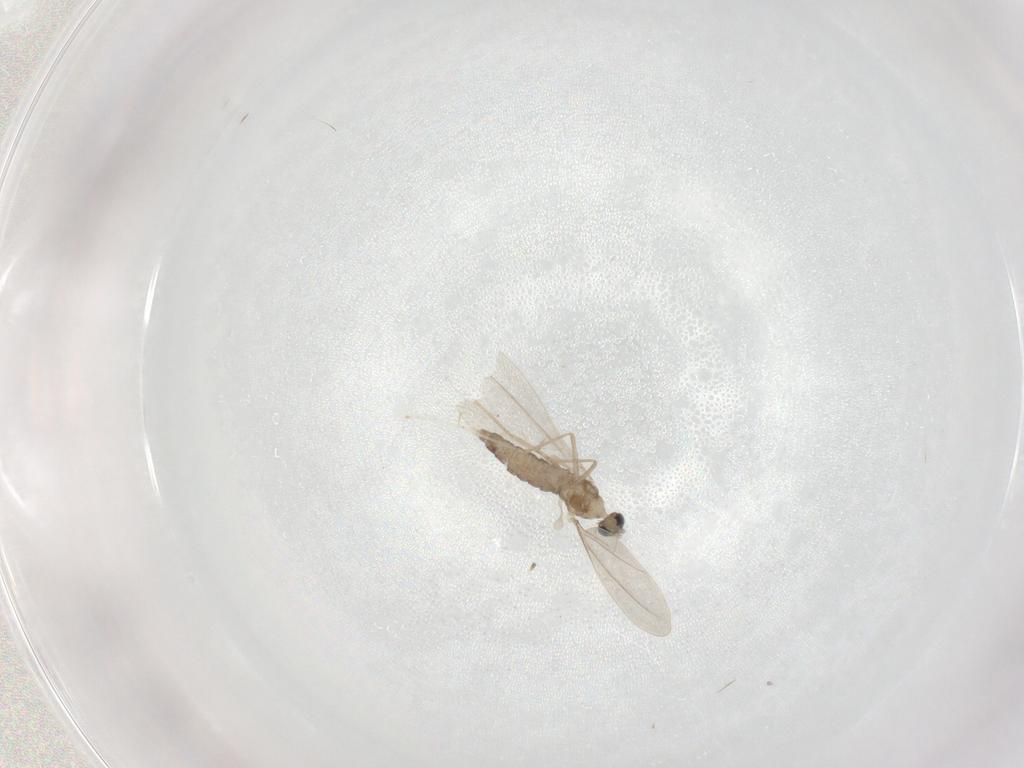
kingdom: Animalia
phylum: Arthropoda
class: Insecta
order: Diptera
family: Cecidomyiidae
